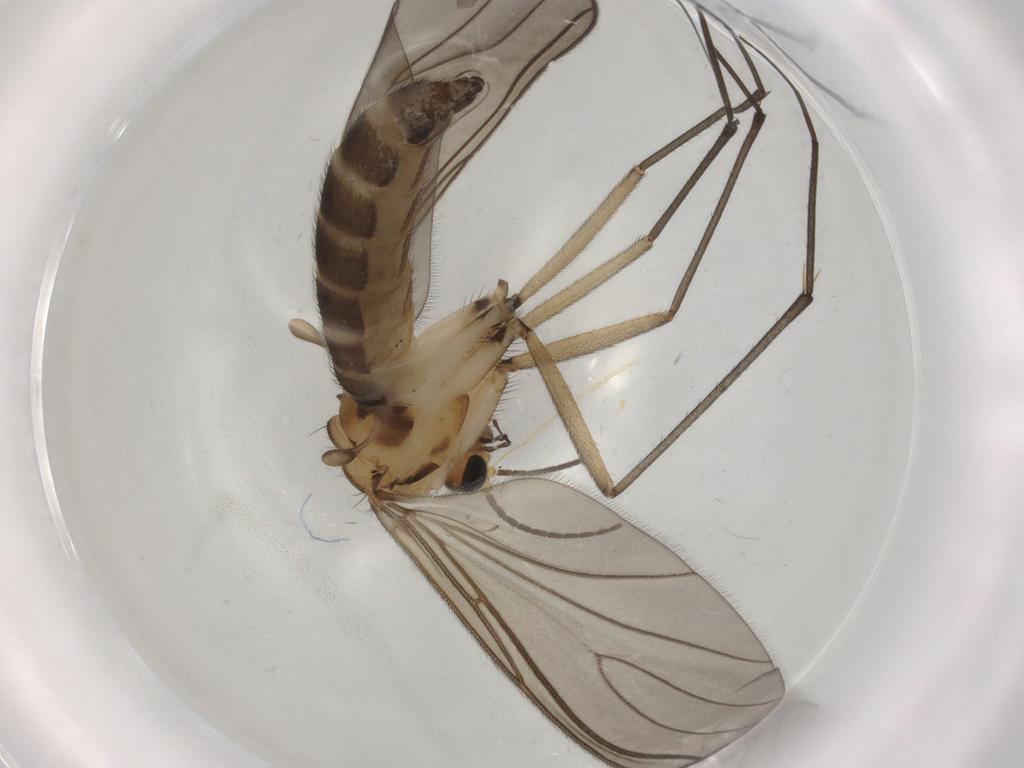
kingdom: Animalia
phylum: Arthropoda
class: Insecta
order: Diptera
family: Sciaridae
